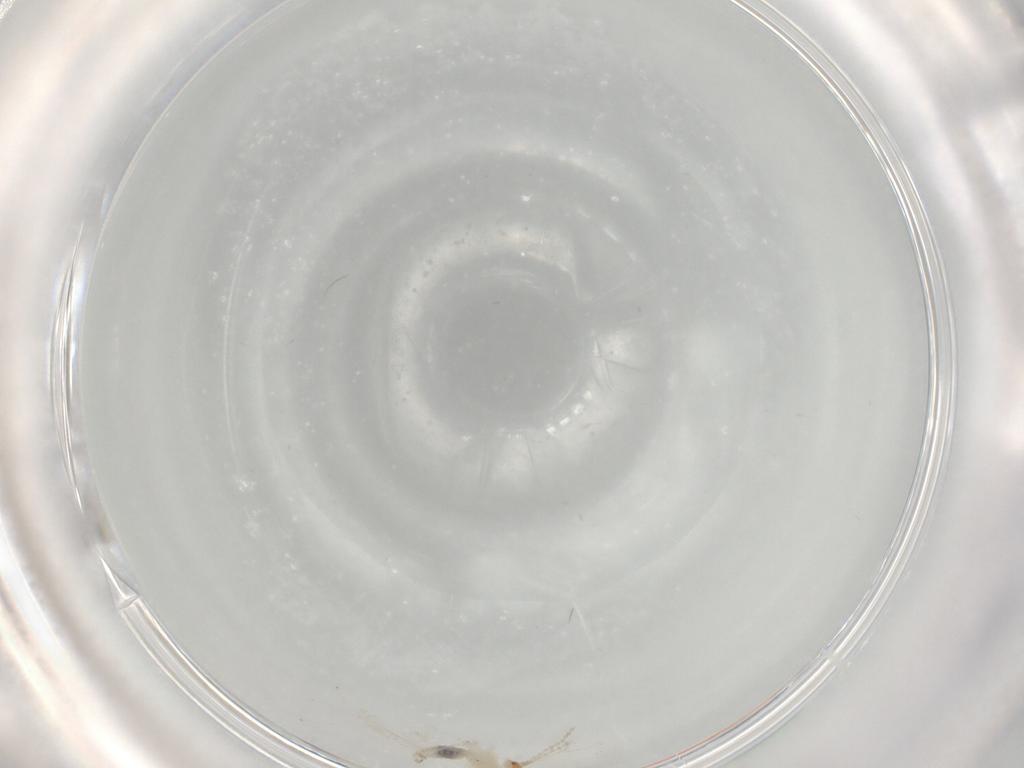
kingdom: Animalia
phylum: Arthropoda
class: Insecta
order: Diptera
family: Cecidomyiidae
